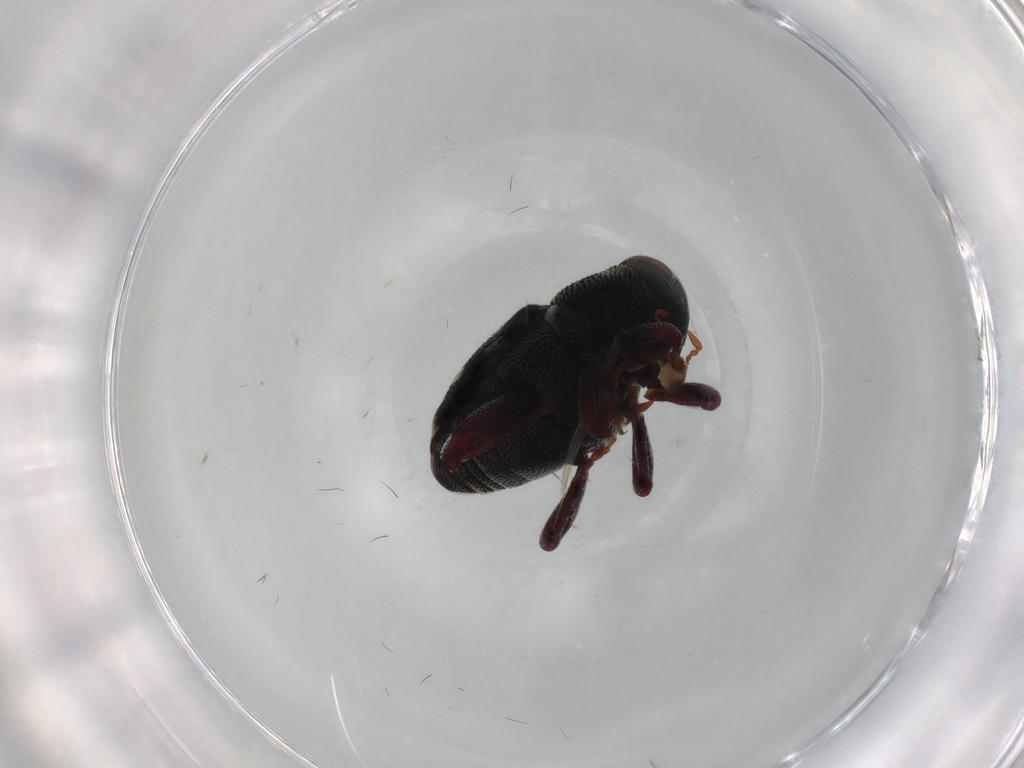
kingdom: Animalia
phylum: Arthropoda
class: Insecta
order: Coleoptera
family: Curculionidae
